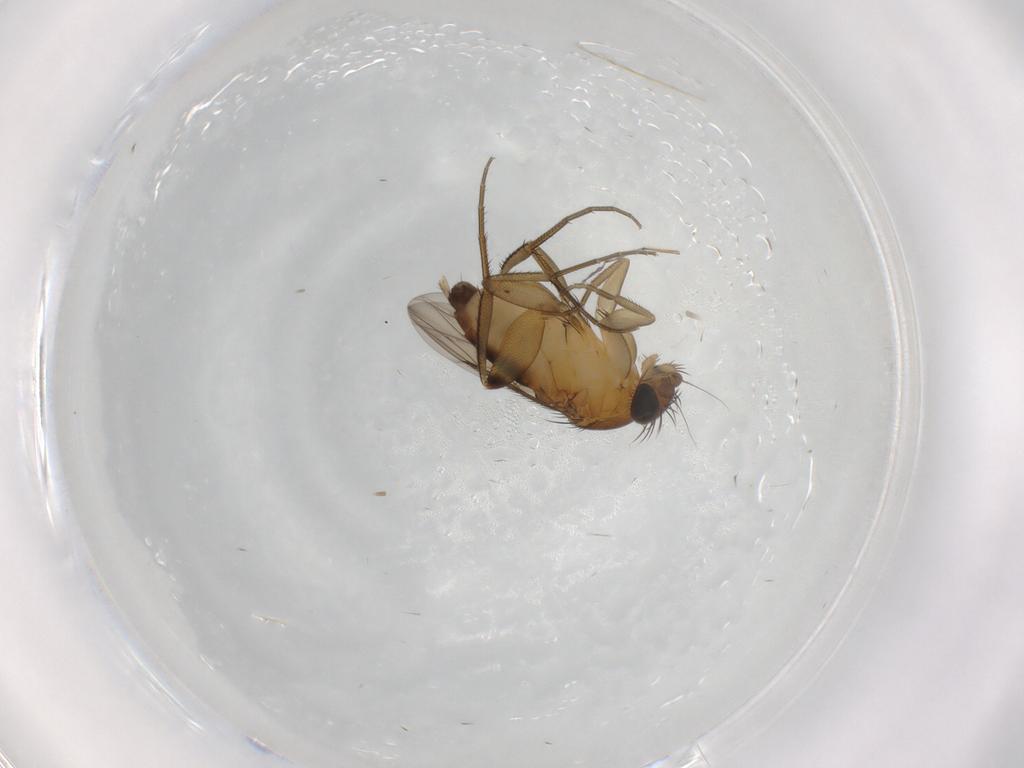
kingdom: Animalia
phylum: Arthropoda
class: Insecta
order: Diptera
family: Phoridae
